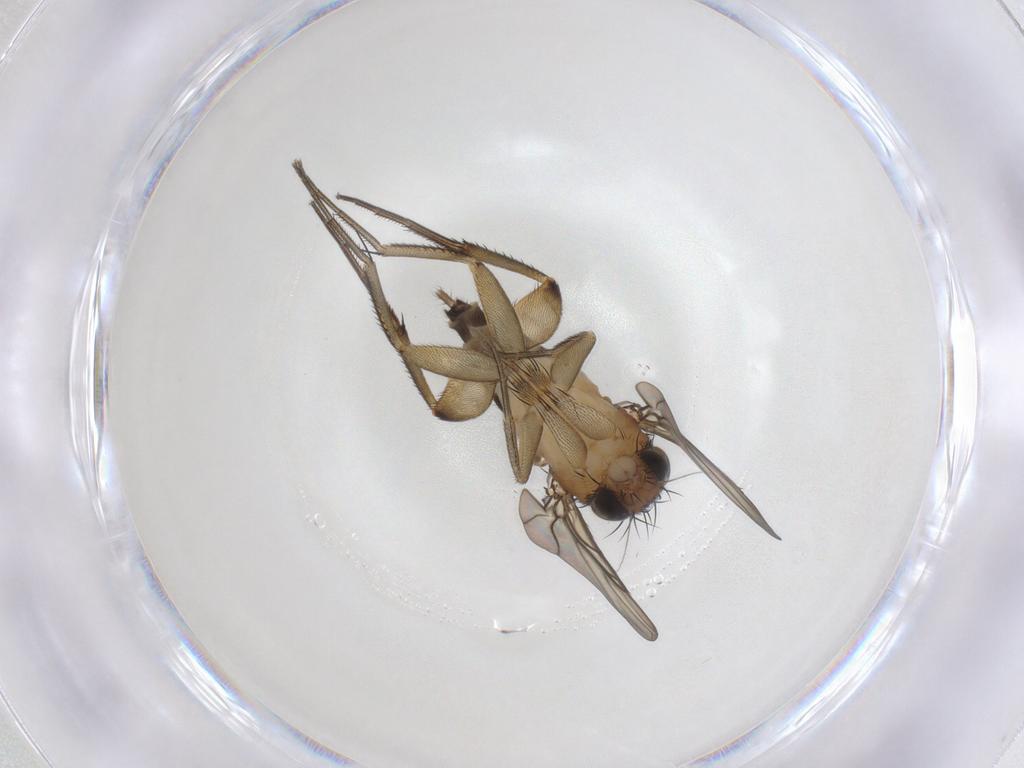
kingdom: Animalia
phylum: Arthropoda
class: Insecta
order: Diptera
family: Phoridae
